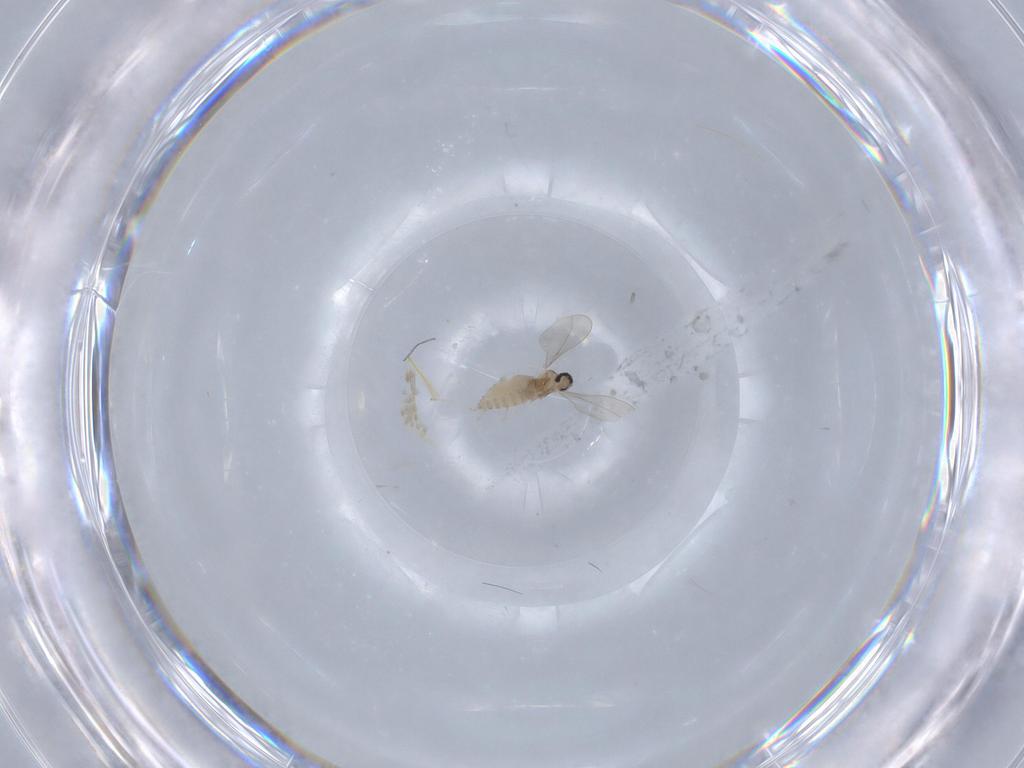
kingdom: Animalia
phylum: Arthropoda
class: Insecta
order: Diptera
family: Cecidomyiidae
